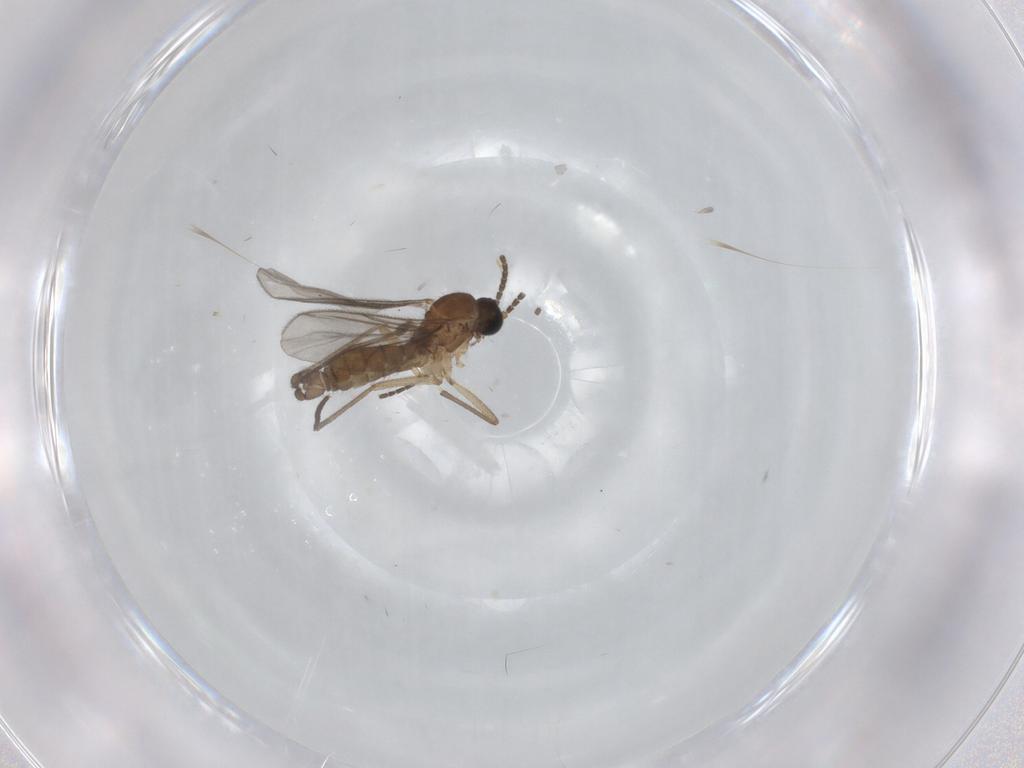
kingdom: Animalia
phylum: Arthropoda
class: Insecta
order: Diptera
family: Sciaridae
